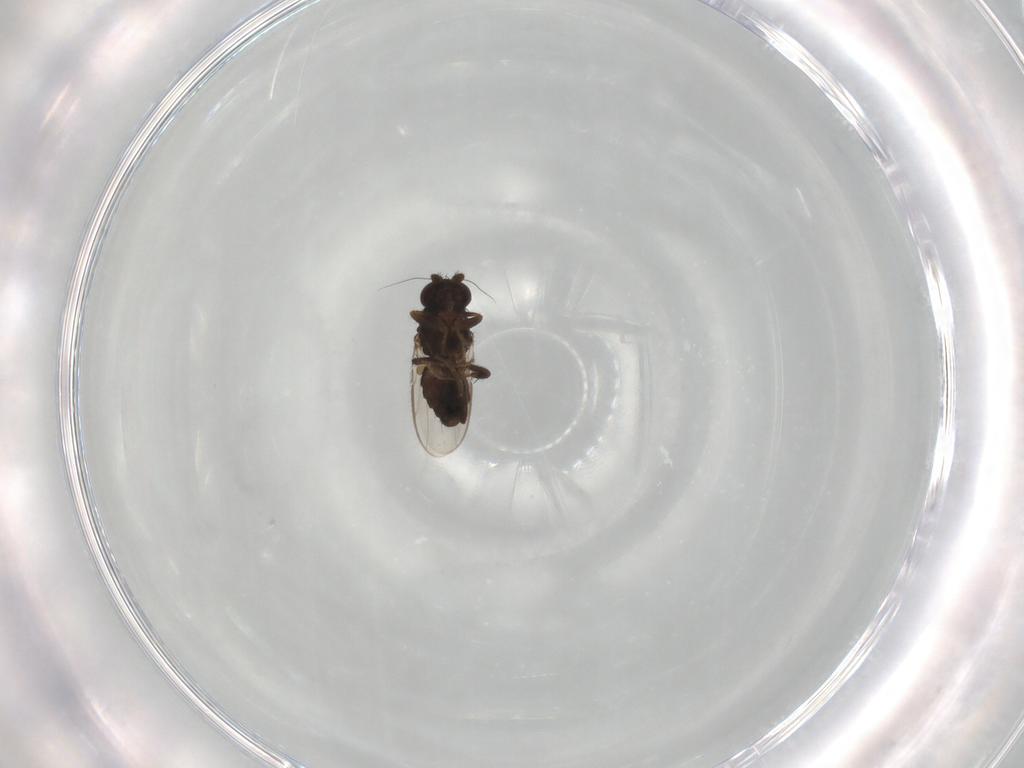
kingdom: Animalia
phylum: Arthropoda
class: Insecta
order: Diptera
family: Sphaeroceridae
